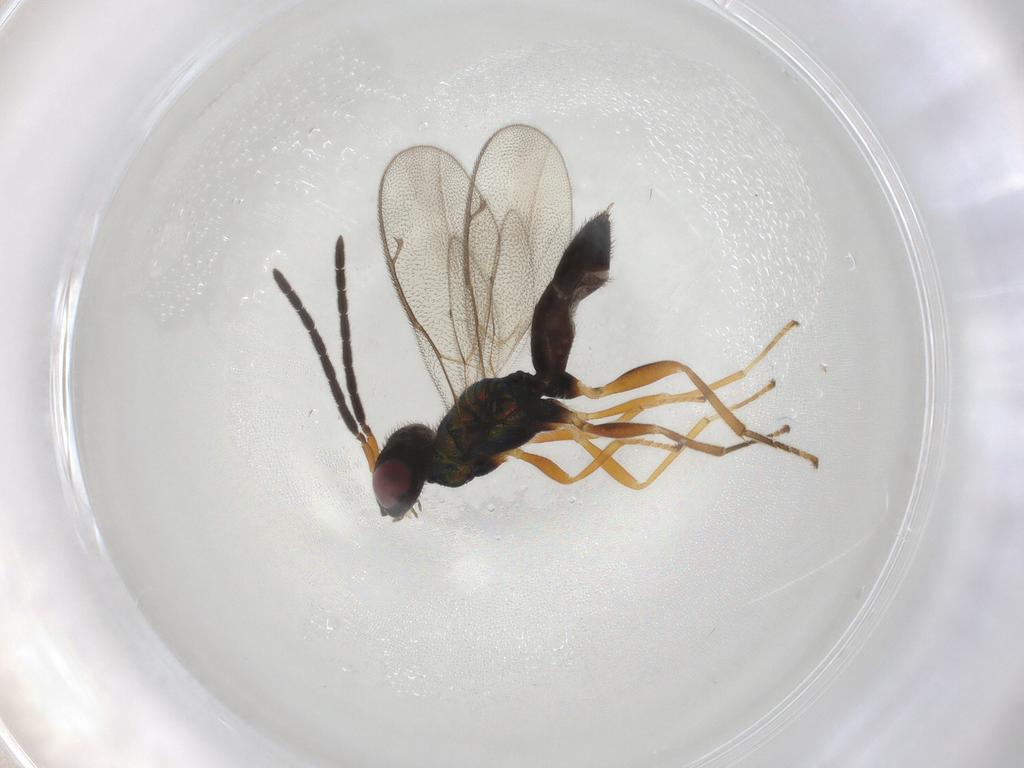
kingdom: Animalia
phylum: Arthropoda
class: Insecta
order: Hymenoptera
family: Pteromalidae
